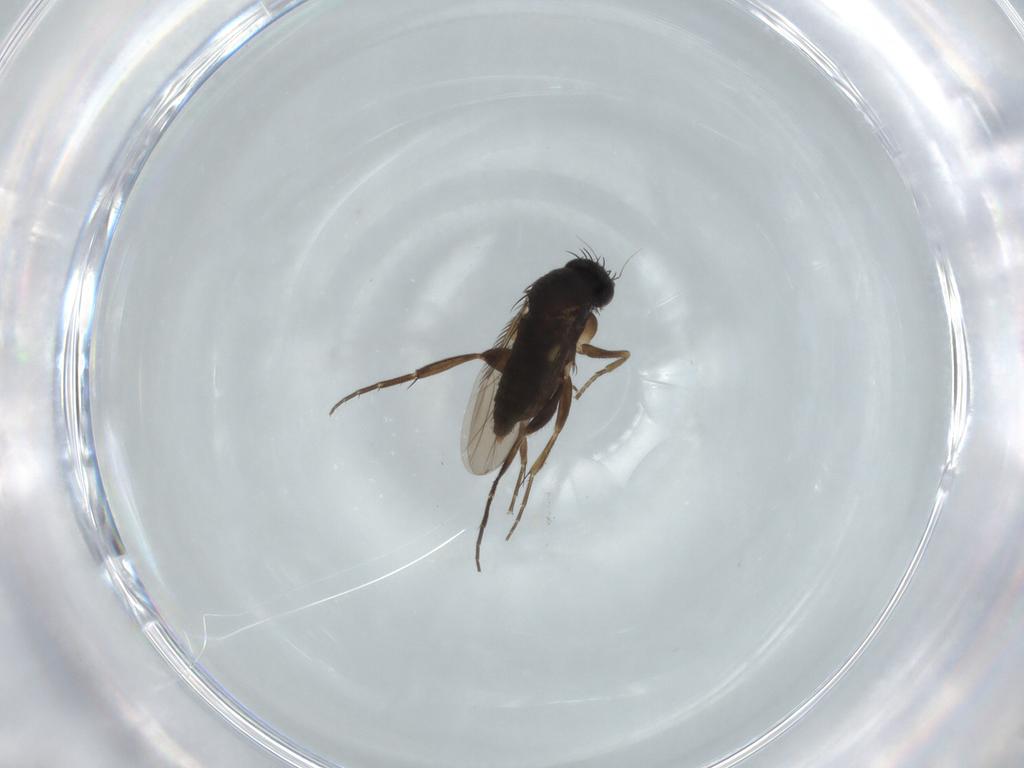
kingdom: Animalia
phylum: Arthropoda
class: Insecta
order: Diptera
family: Phoridae
